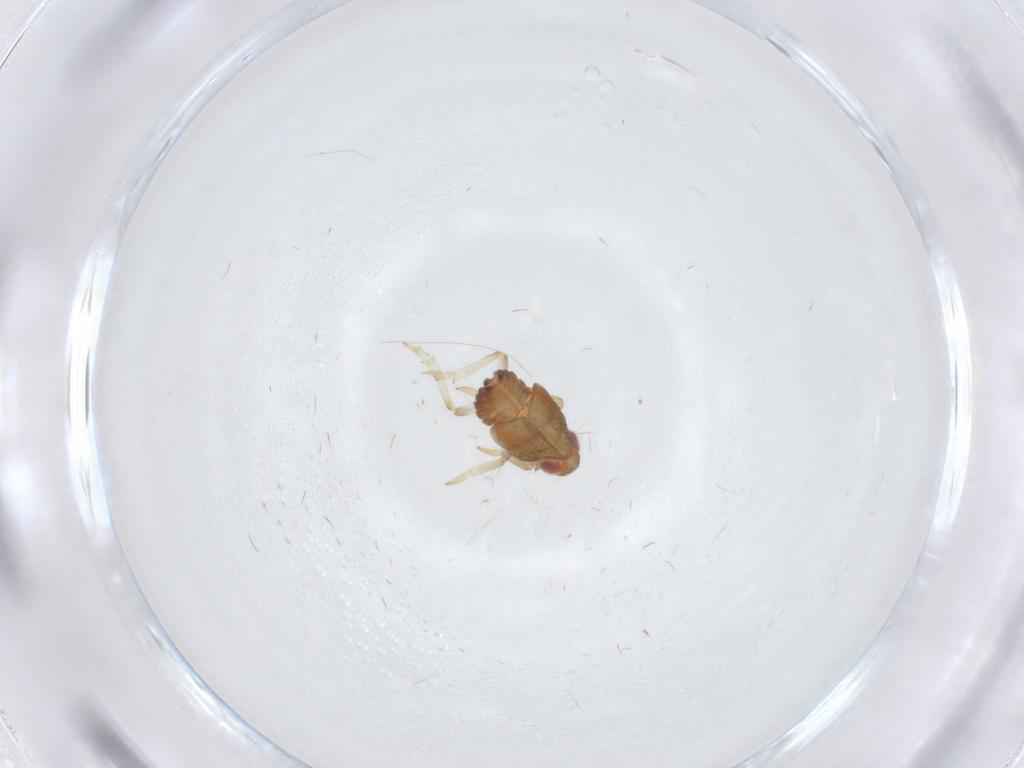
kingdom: Animalia
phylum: Arthropoda
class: Insecta
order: Hemiptera
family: Issidae
